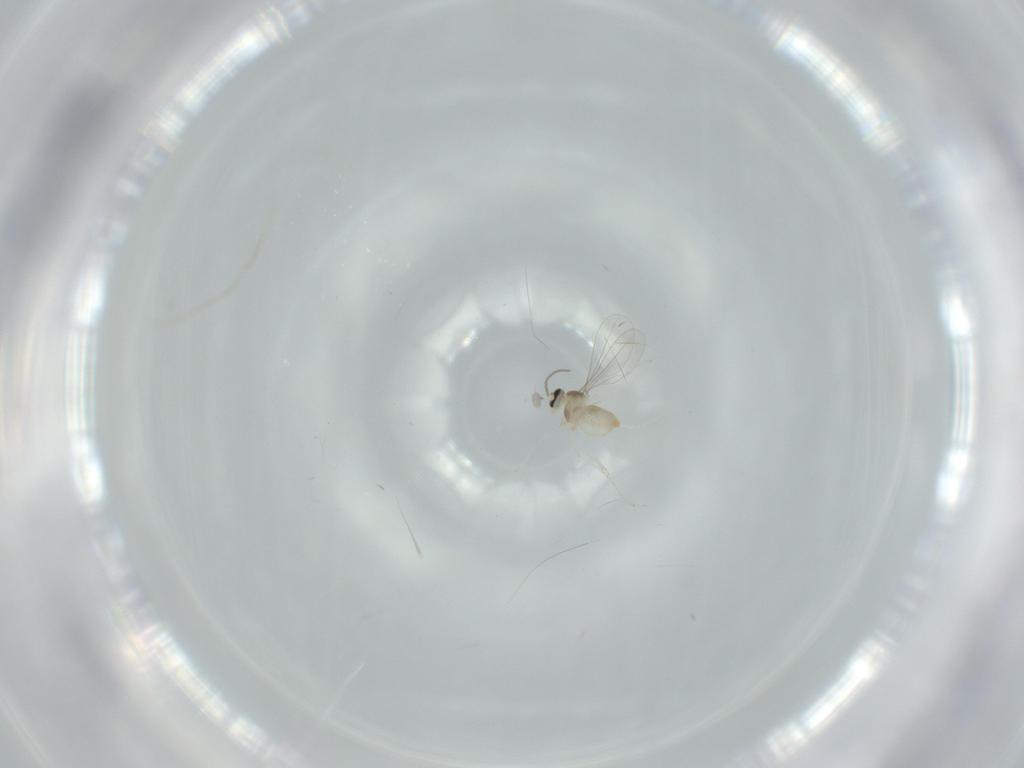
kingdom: Animalia
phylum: Arthropoda
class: Insecta
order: Diptera
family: Cecidomyiidae
